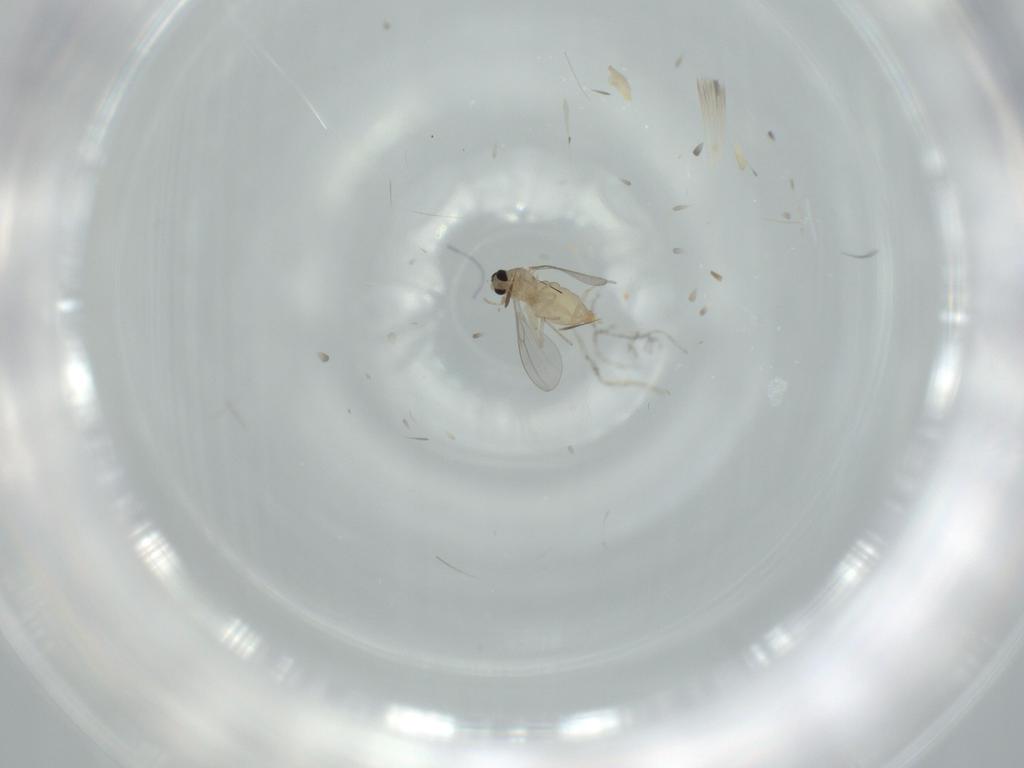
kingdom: Animalia
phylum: Arthropoda
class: Insecta
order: Diptera
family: Cecidomyiidae
